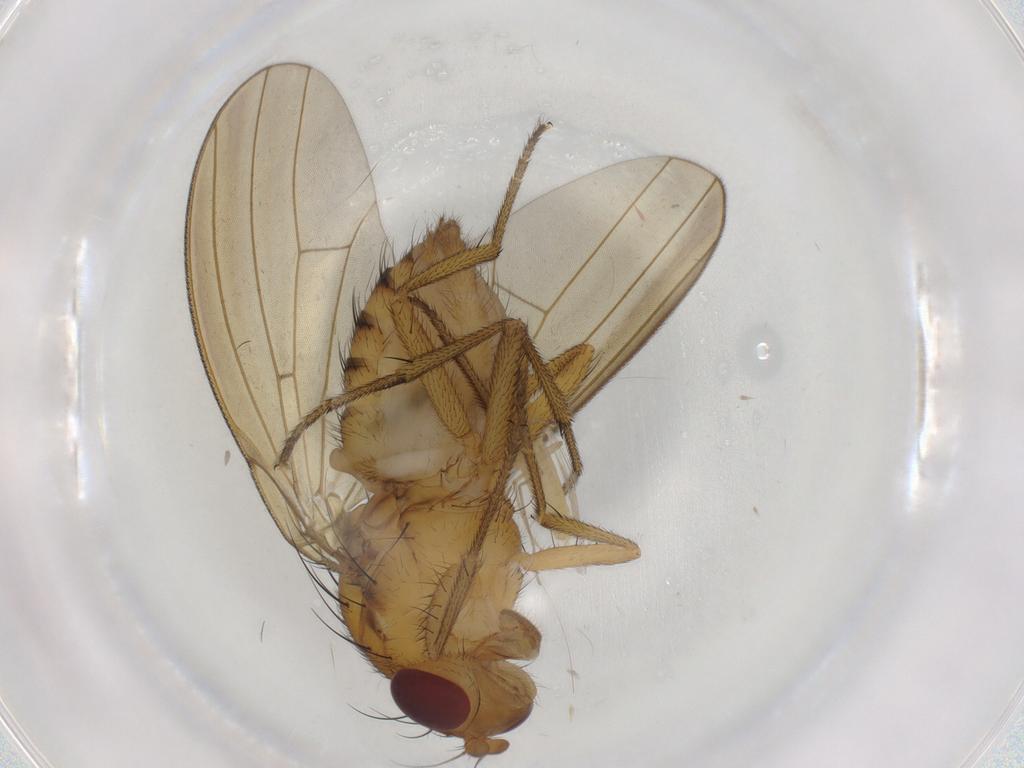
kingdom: Animalia
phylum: Arthropoda
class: Insecta
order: Diptera
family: Chironomidae
